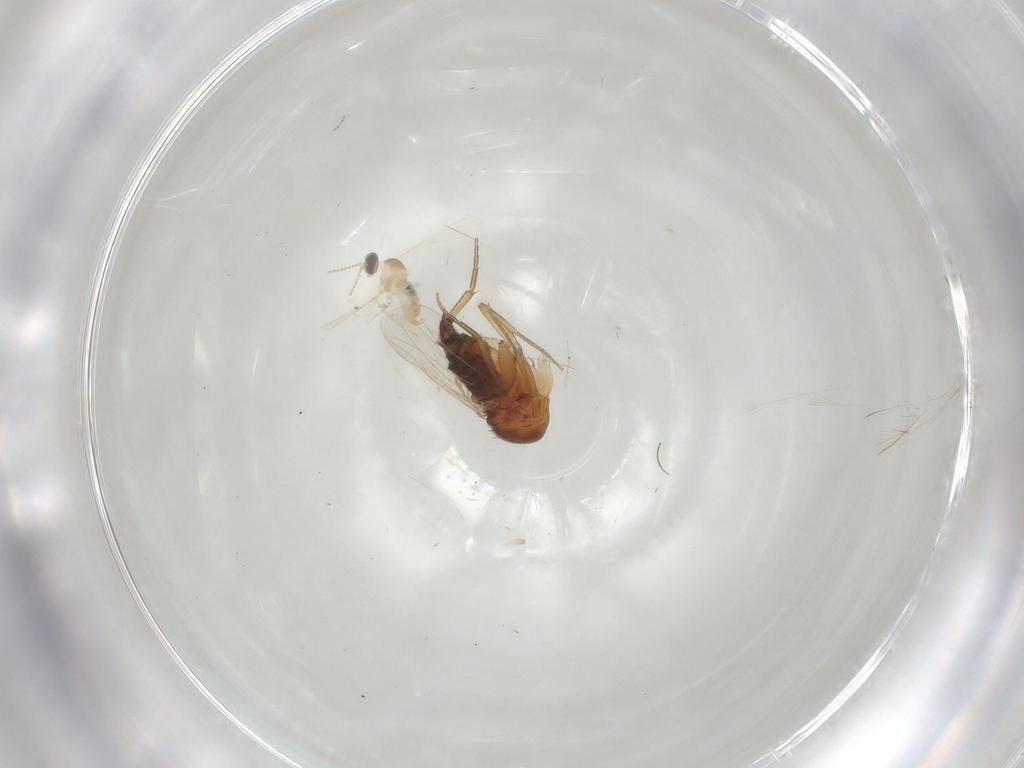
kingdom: Animalia
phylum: Arthropoda
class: Insecta
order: Diptera
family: Phoridae
